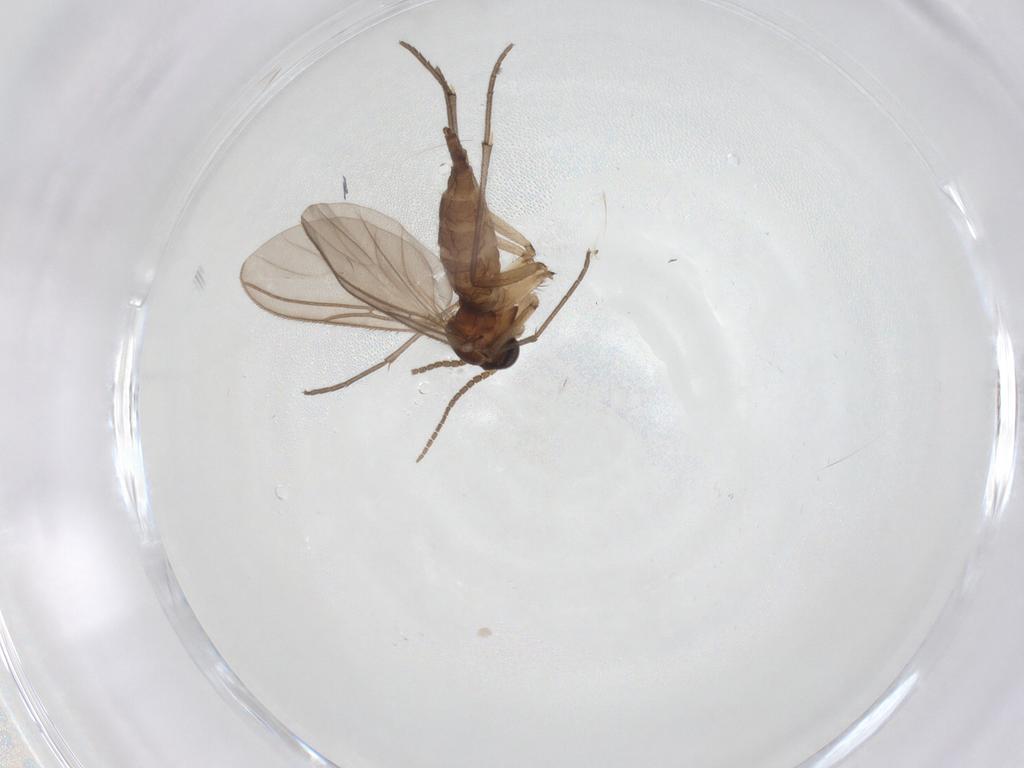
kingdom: Animalia
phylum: Arthropoda
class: Insecta
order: Diptera
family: Sciaridae
